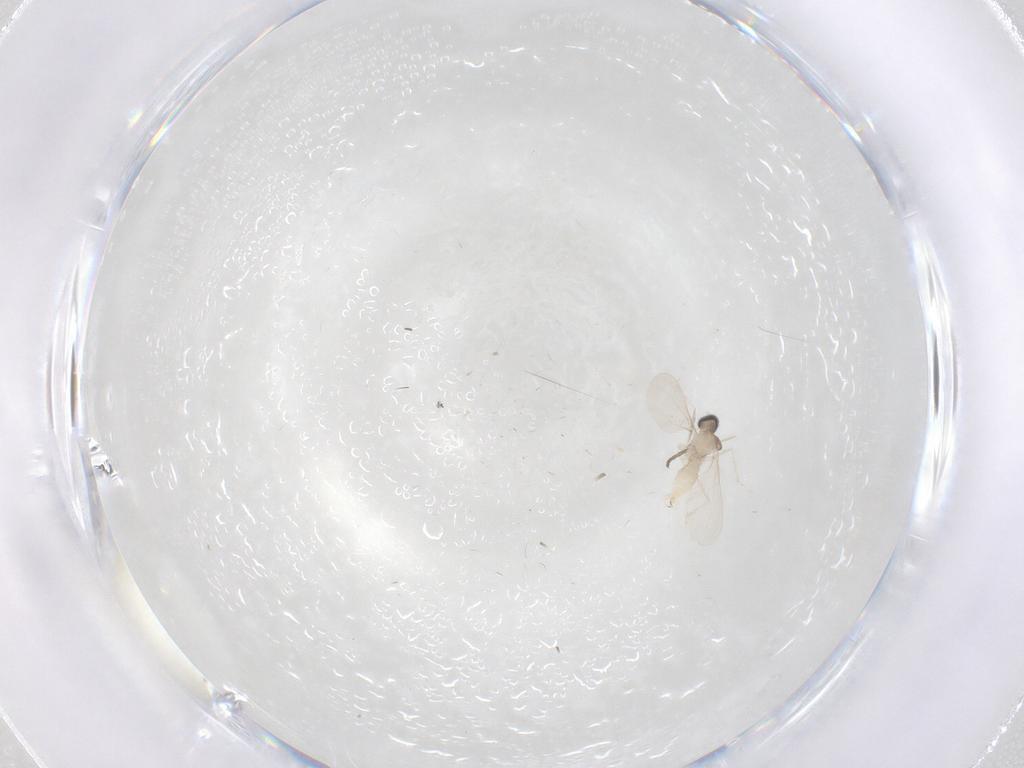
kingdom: Animalia
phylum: Arthropoda
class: Insecta
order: Diptera
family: Cecidomyiidae
